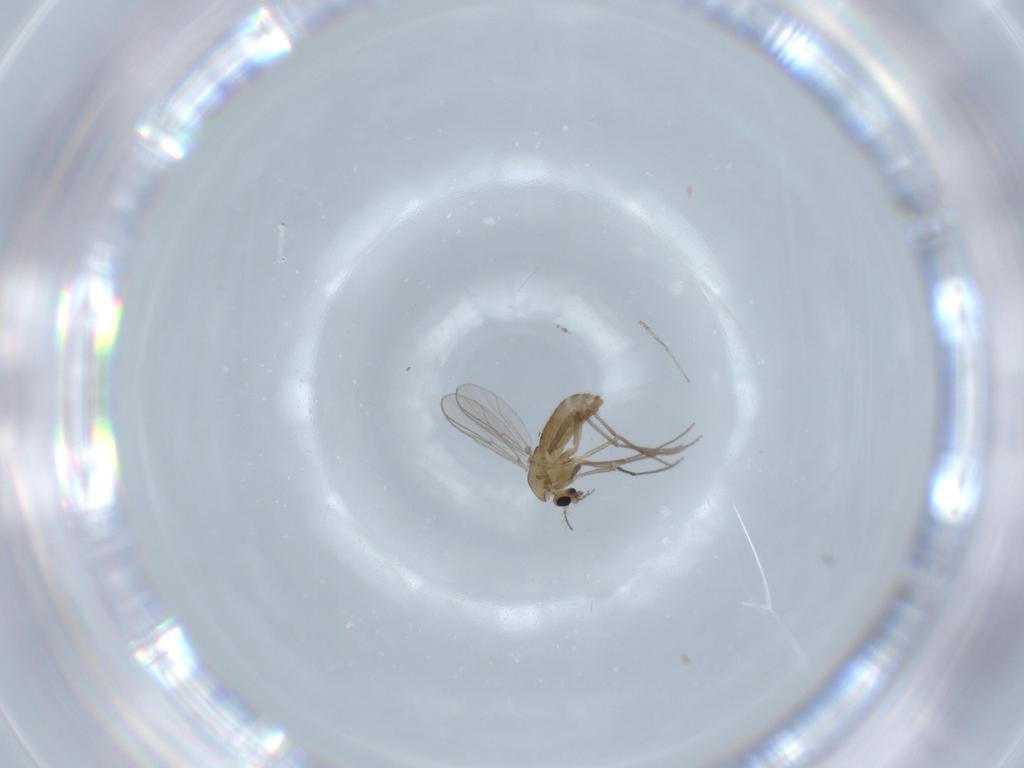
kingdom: Animalia
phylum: Arthropoda
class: Insecta
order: Diptera
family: Chironomidae
